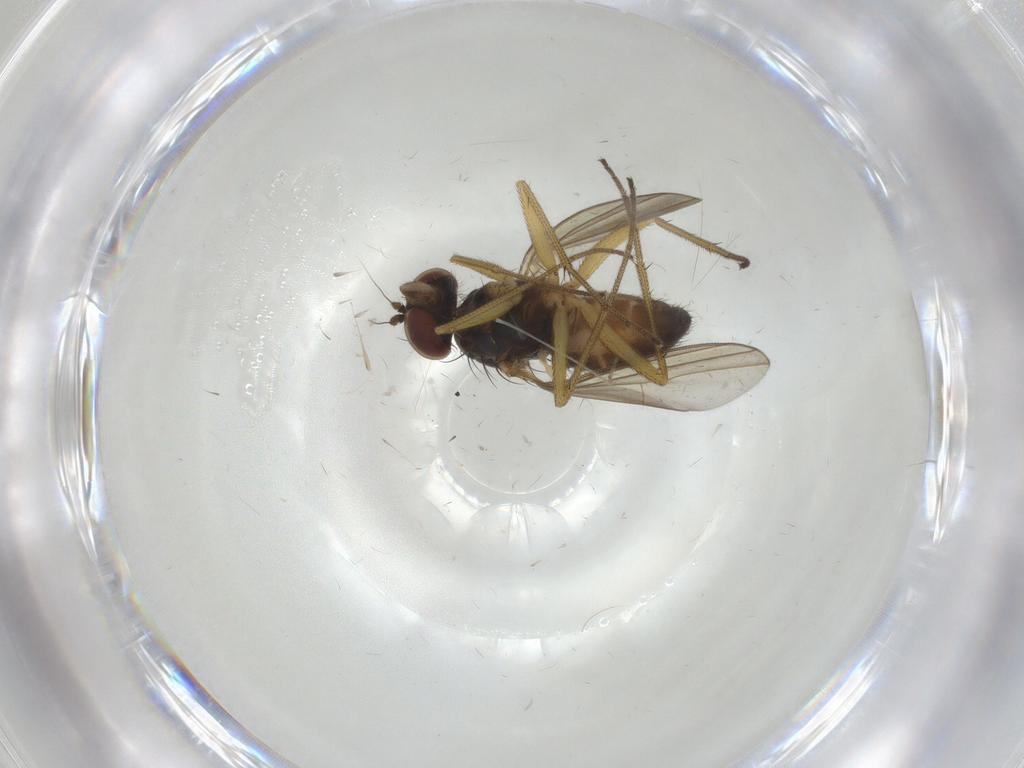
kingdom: Animalia
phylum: Arthropoda
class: Insecta
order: Diptera
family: Dolichopodidae
